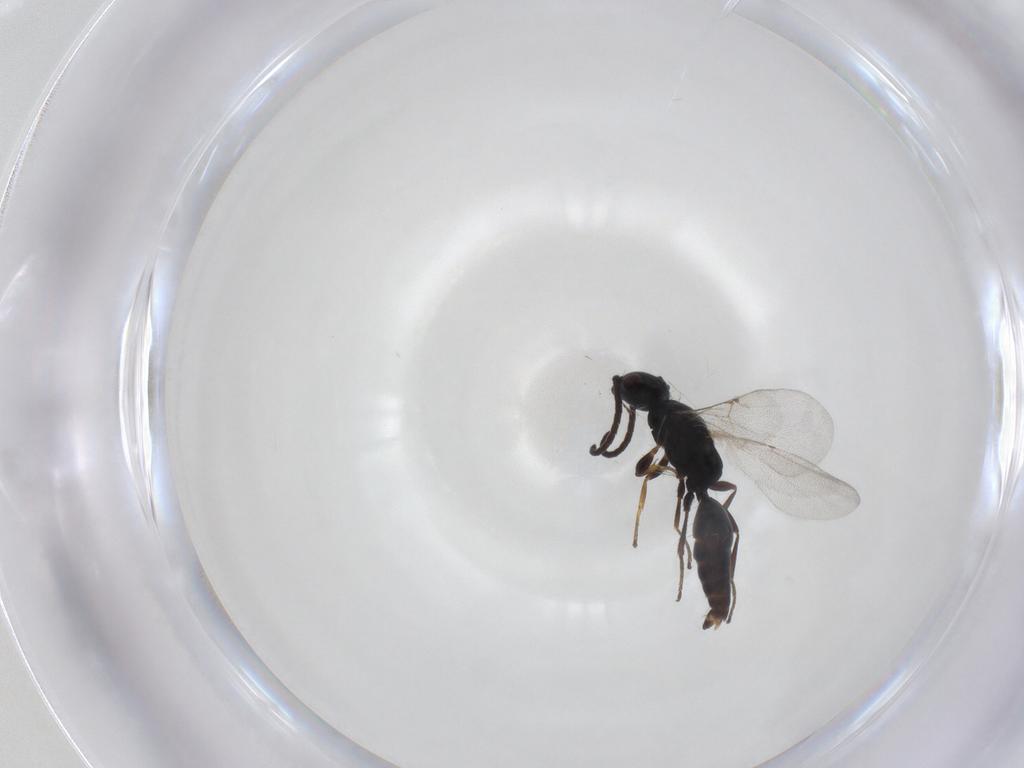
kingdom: Animalia
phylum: Arthropoda
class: Insecta
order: Hymenoptera
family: Bethylidae
